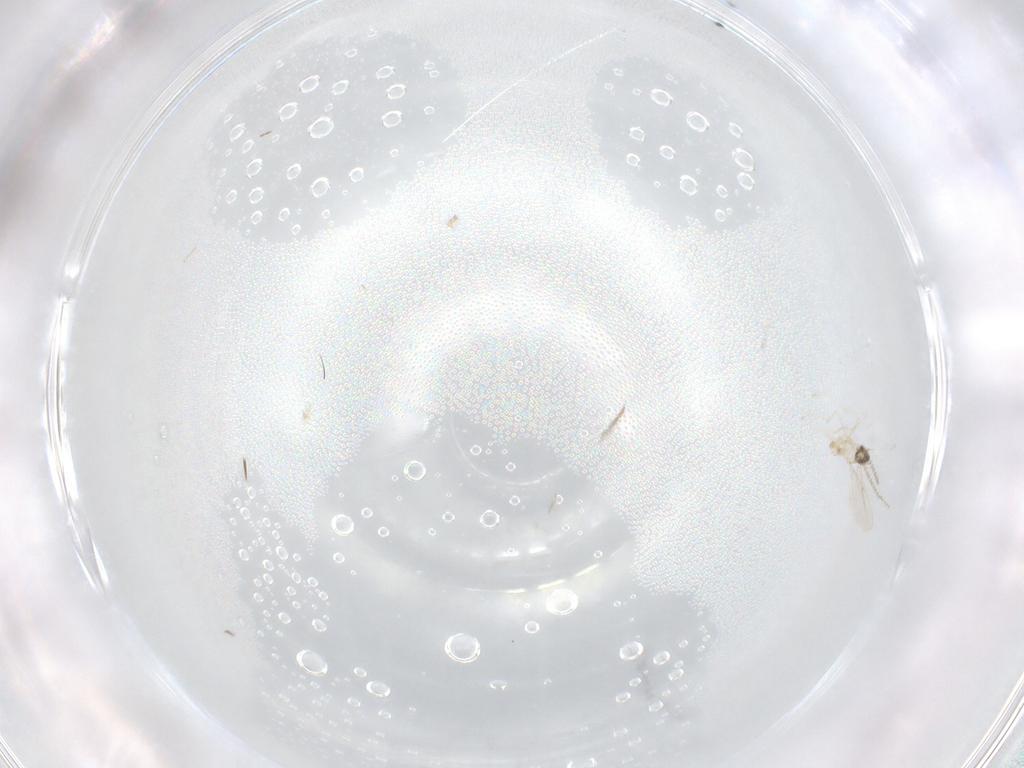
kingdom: Animalia
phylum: Arthropoda
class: Insecta
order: Diptera
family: Cecidomyiidae
